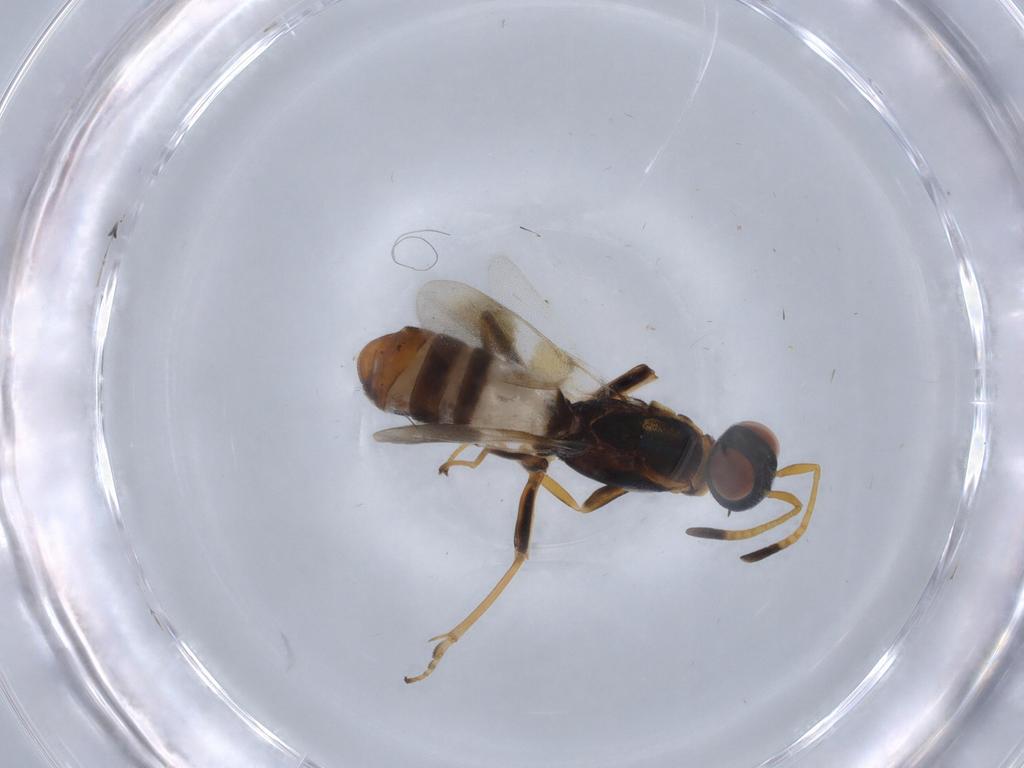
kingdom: Animalia
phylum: Arthropoda
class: Insecta
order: Hymenoptera
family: Eupelmidae
